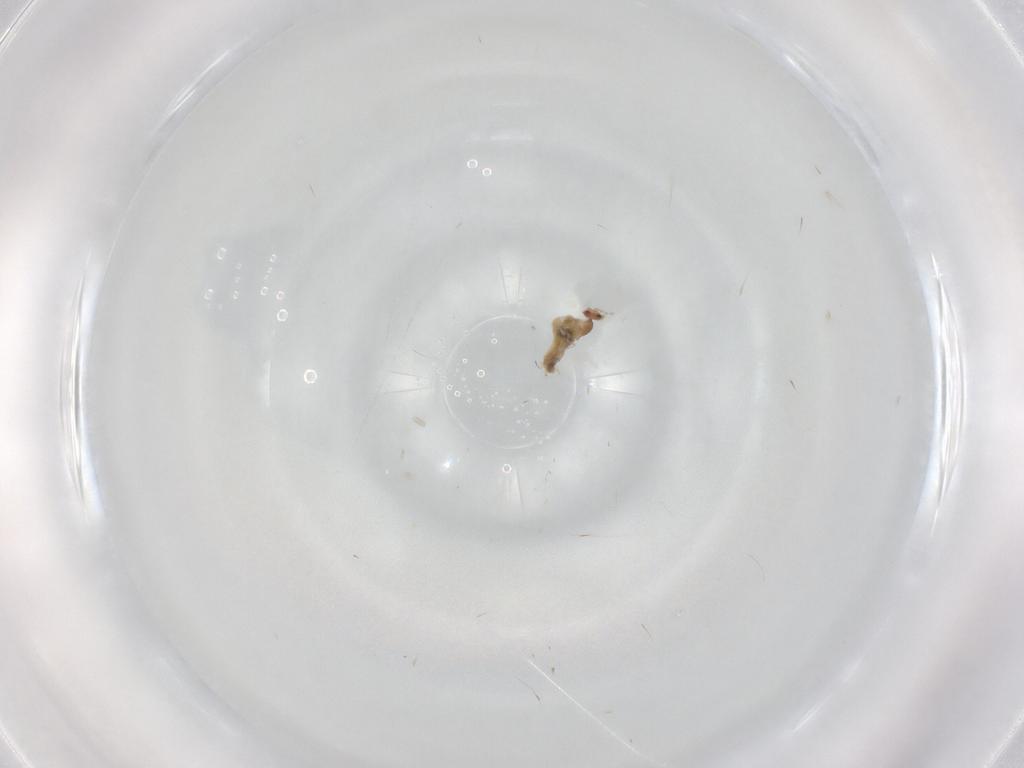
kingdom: Animalia
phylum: Arthropoda
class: Insecta
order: Diptera
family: Cecidomyiidae
